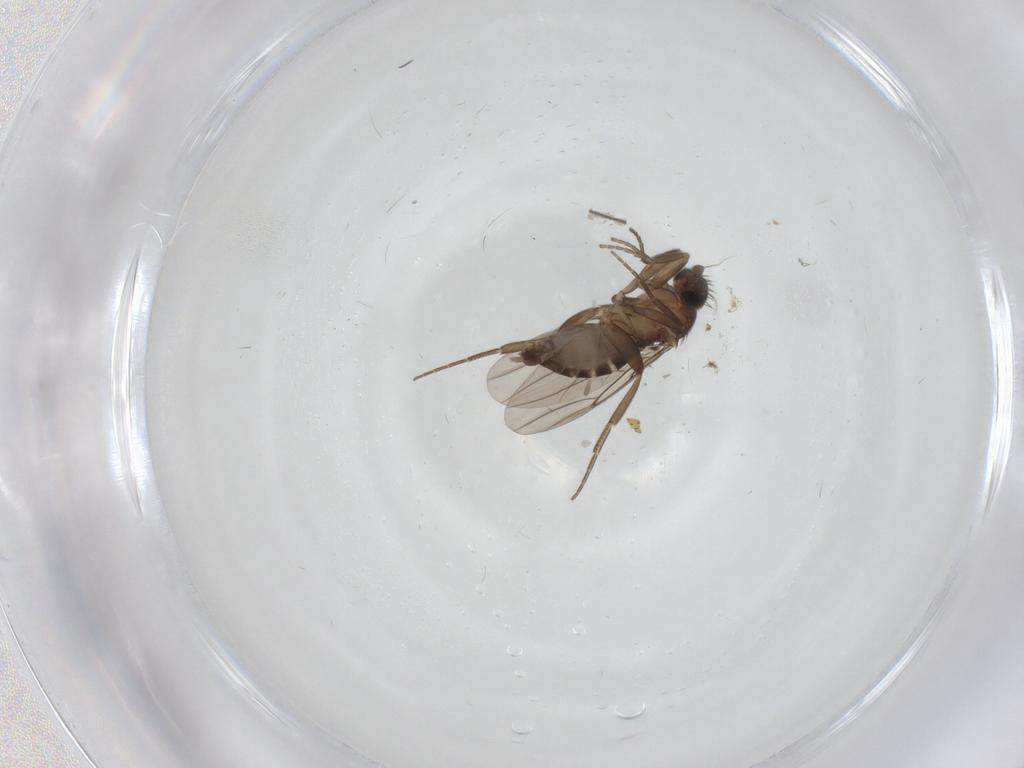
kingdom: Animalia
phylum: Arthropoda
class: Insecta
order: Diptera
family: Phoridae
